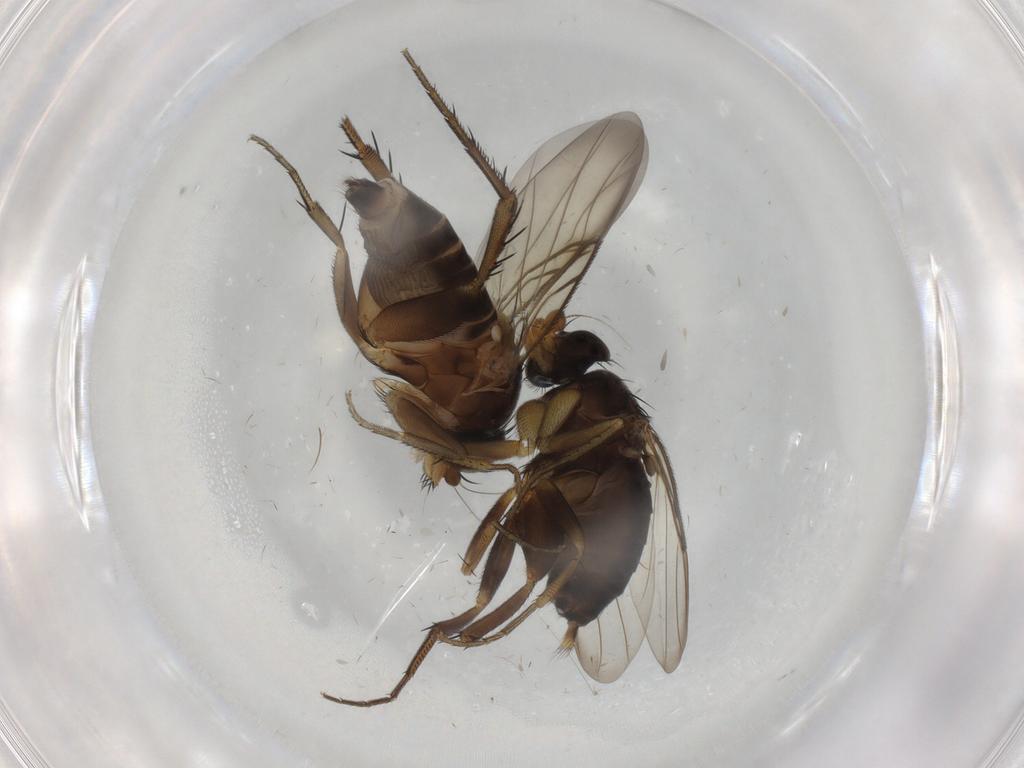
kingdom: Animalia
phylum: Arthropoda
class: Insecta
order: Diptera
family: Phoridae
